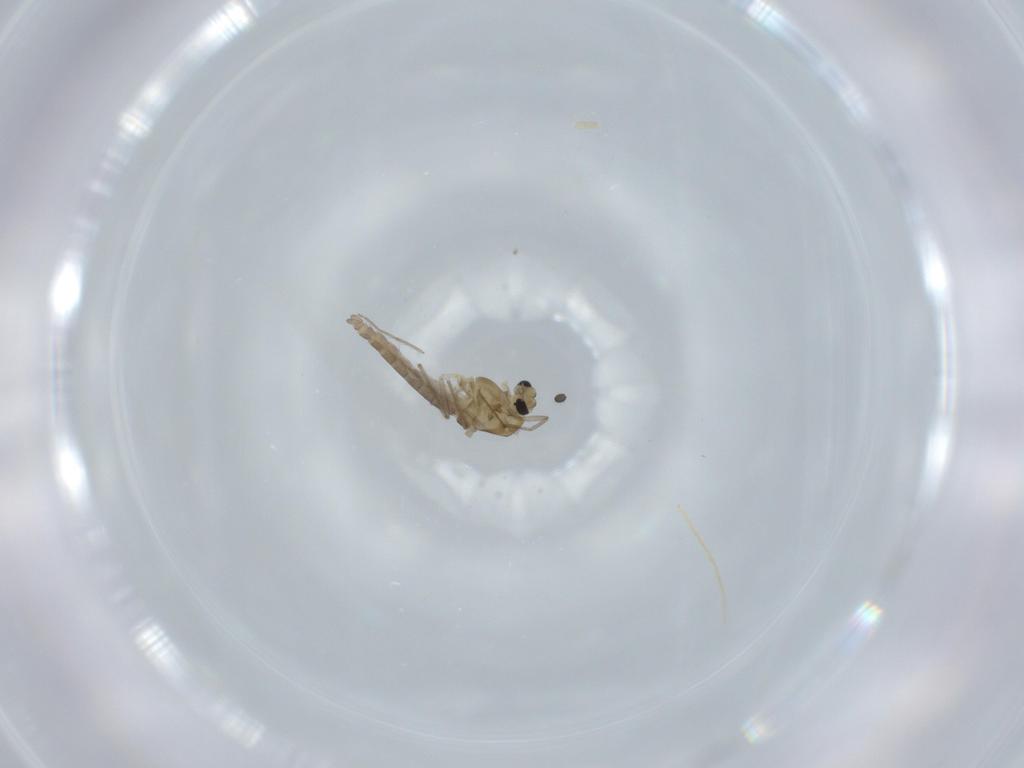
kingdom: Animalia
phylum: Arthropoda
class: Insecta
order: Diptera
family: Chironomidae
